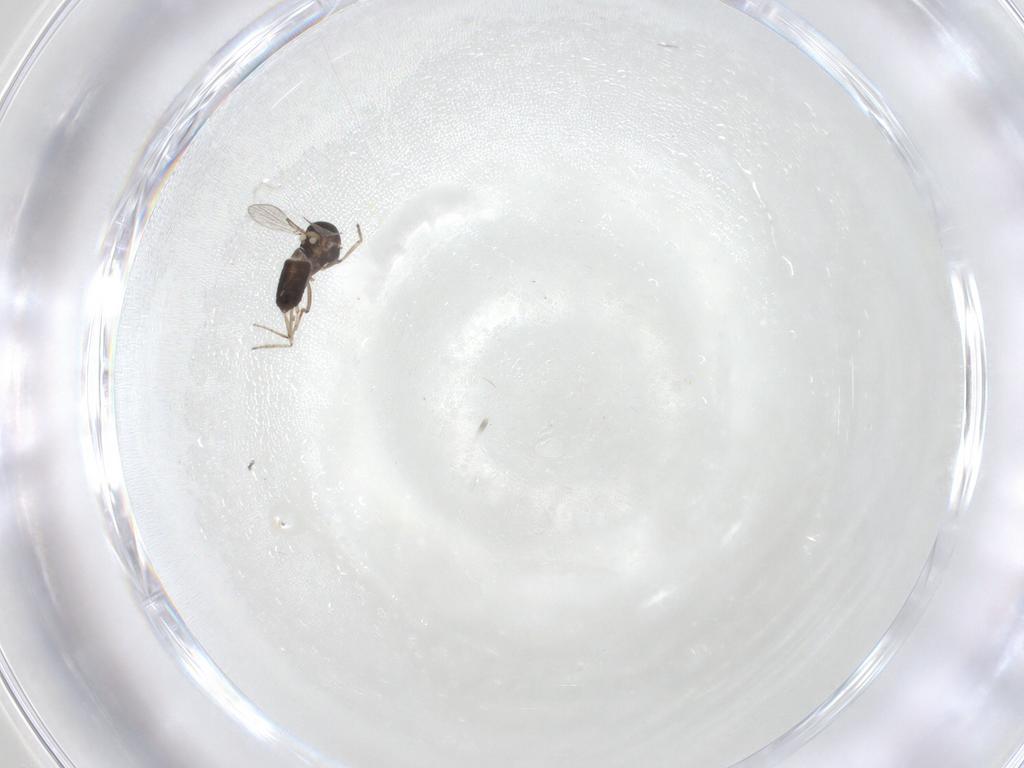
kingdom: Animalia
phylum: Arthropoda
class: Insecta
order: Diptera
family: Ceratopogonidae
